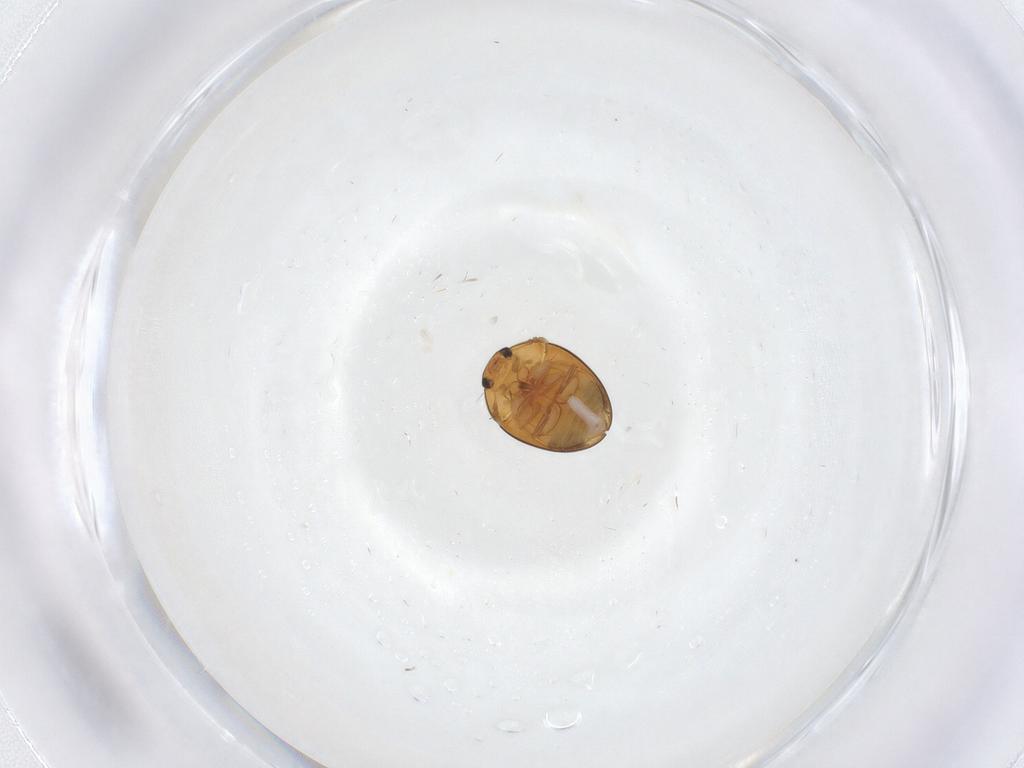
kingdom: Animalia
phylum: Arthropoda
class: Insecta
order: Coleoptera
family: Phalacridae
